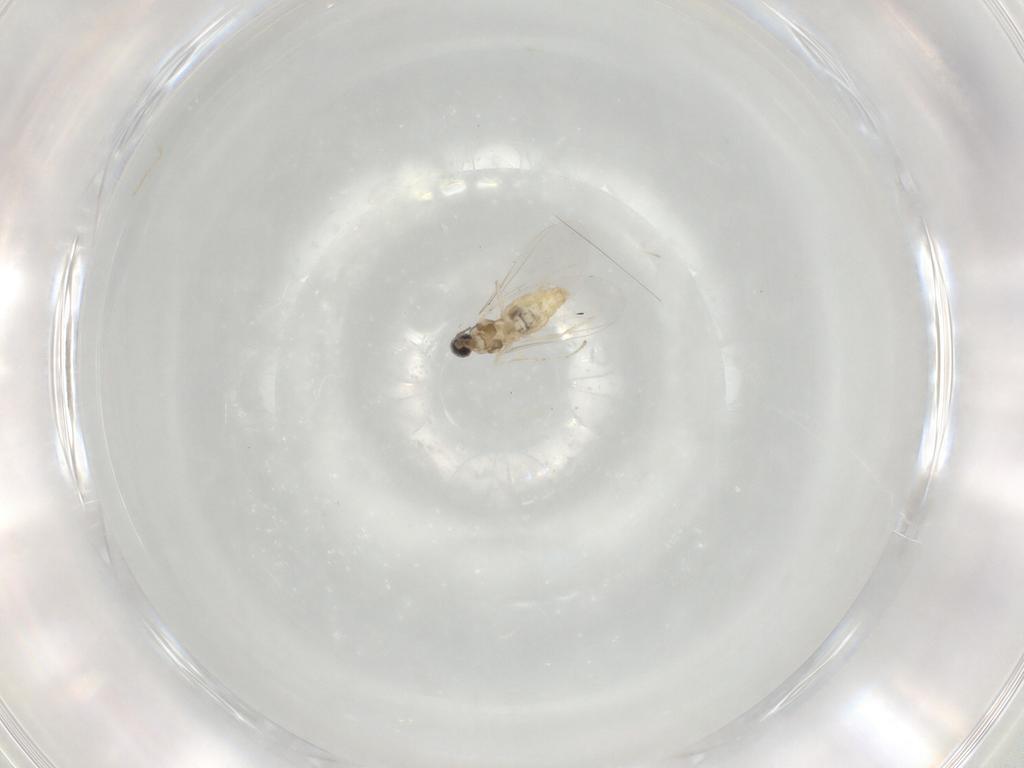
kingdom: Animalia
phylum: Arthropoda
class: Insecta
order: Diptera
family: Cecidomyiidae
